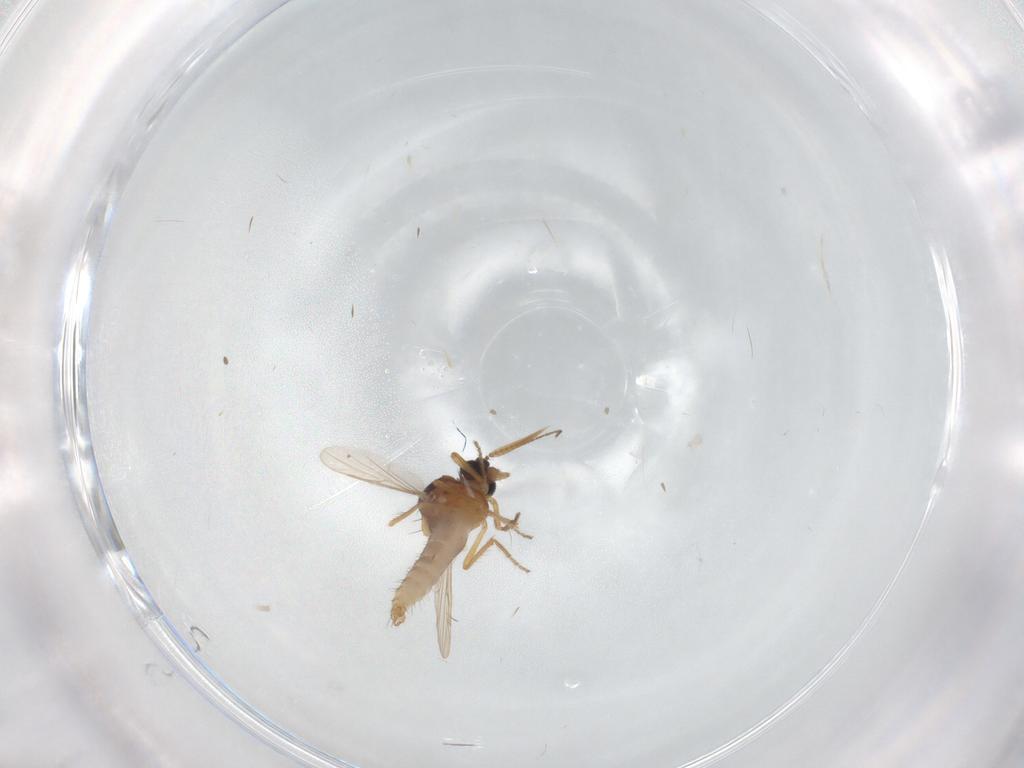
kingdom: Animalia
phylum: Arthropoda
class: Insecta
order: Diptera
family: Ceratopogonidae
